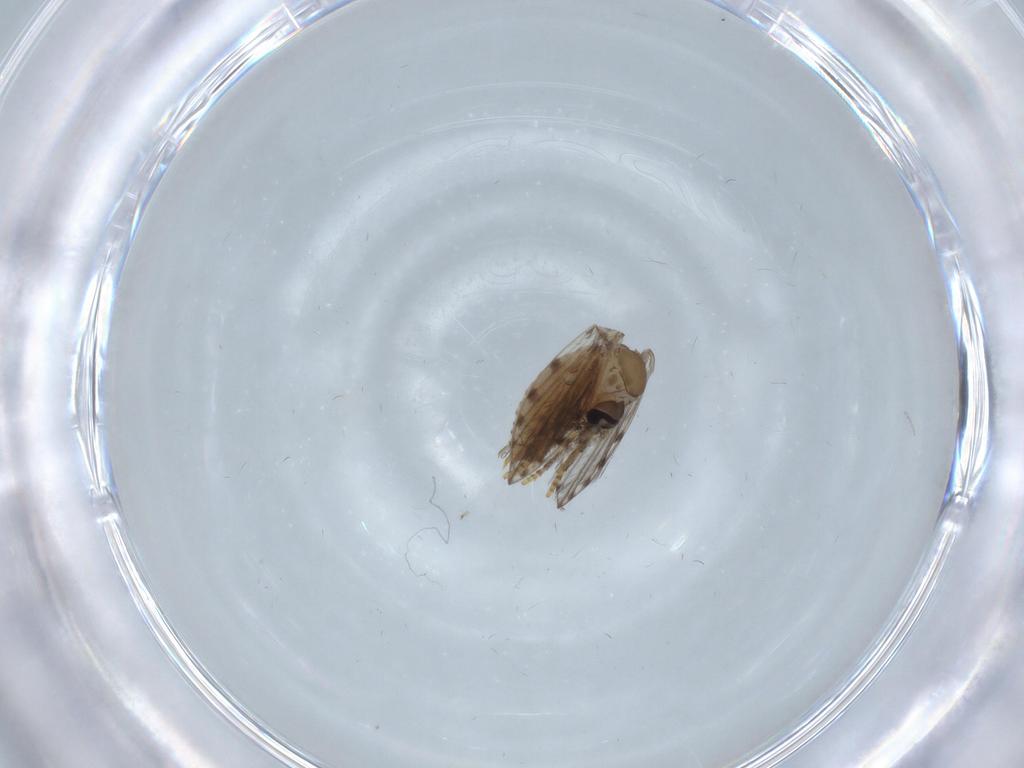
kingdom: Animalia
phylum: Arthropoda
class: Insecta
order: Diptera
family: Psychodidae
